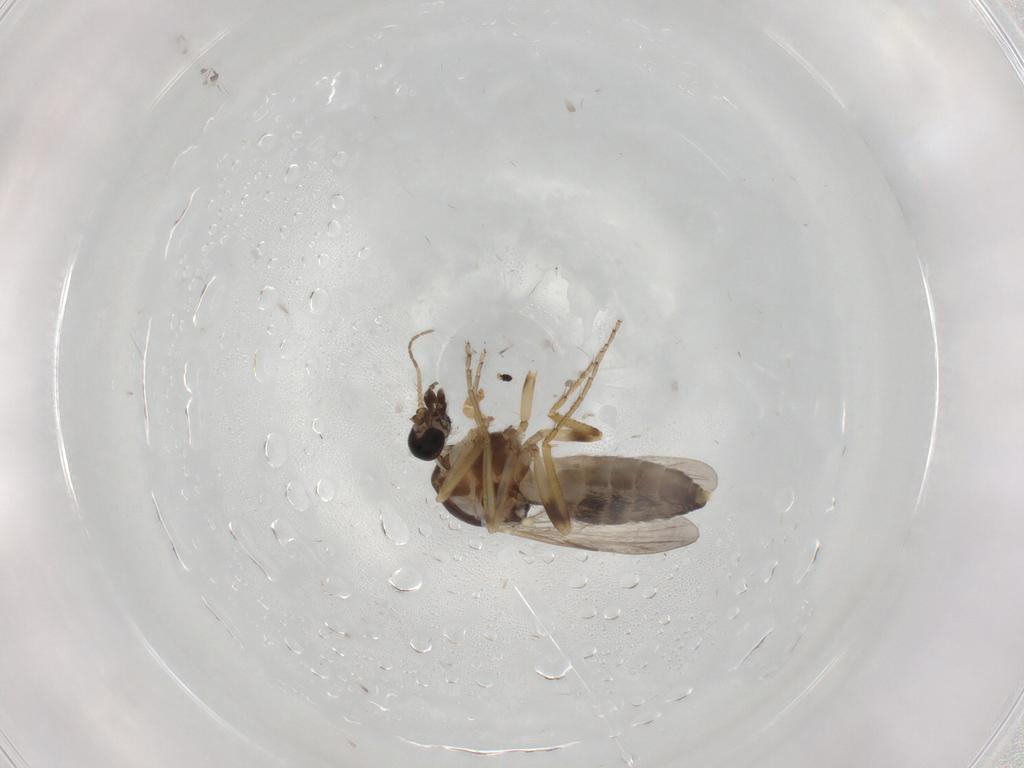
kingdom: Animalia
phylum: Arthropoda
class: Insecta
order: Diptera
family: Ceratopogonidae
